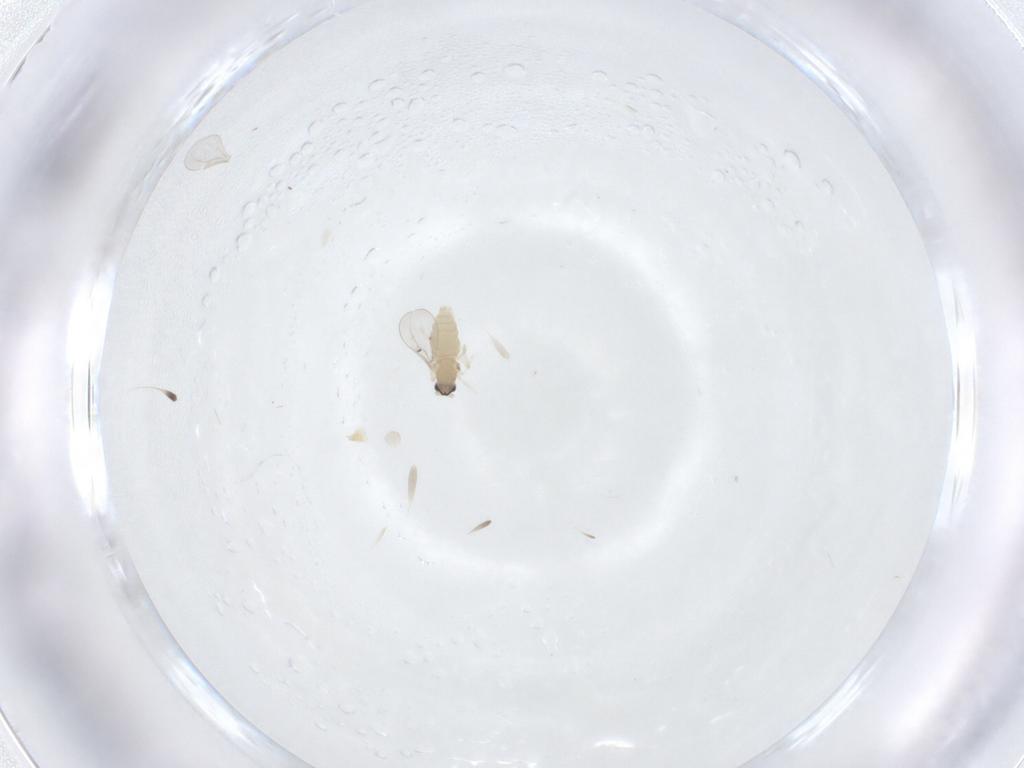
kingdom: Animalia
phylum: Arthropoda
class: Insecta
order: Diptera
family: Cecidomyiidae
